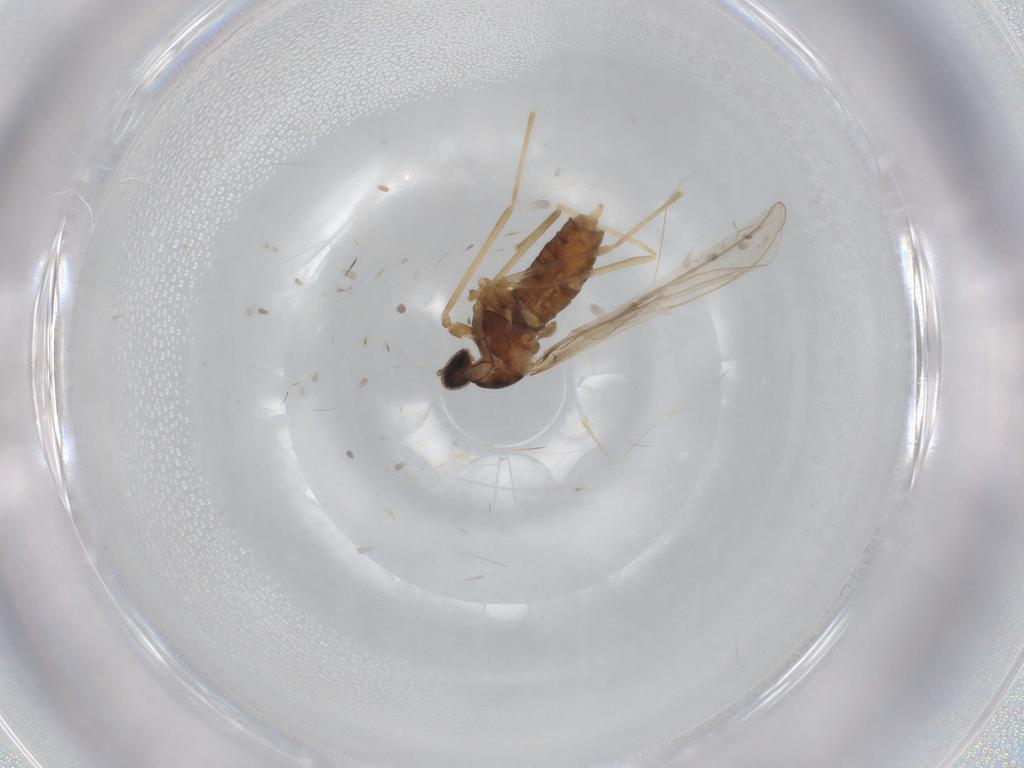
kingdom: Animalia
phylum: Arthropoda
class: Insecta
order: Diptera
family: Cecidomyiidae
